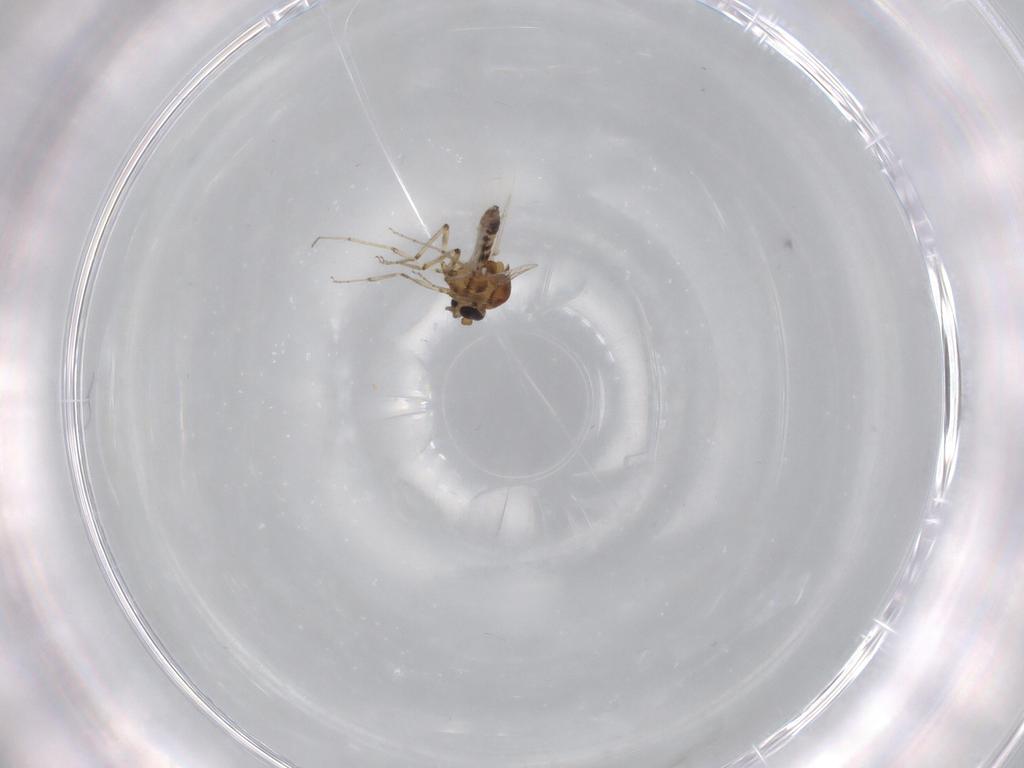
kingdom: Animalia
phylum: Arthropoda
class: Insecta
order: Diptera
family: Ceratopogonidae
